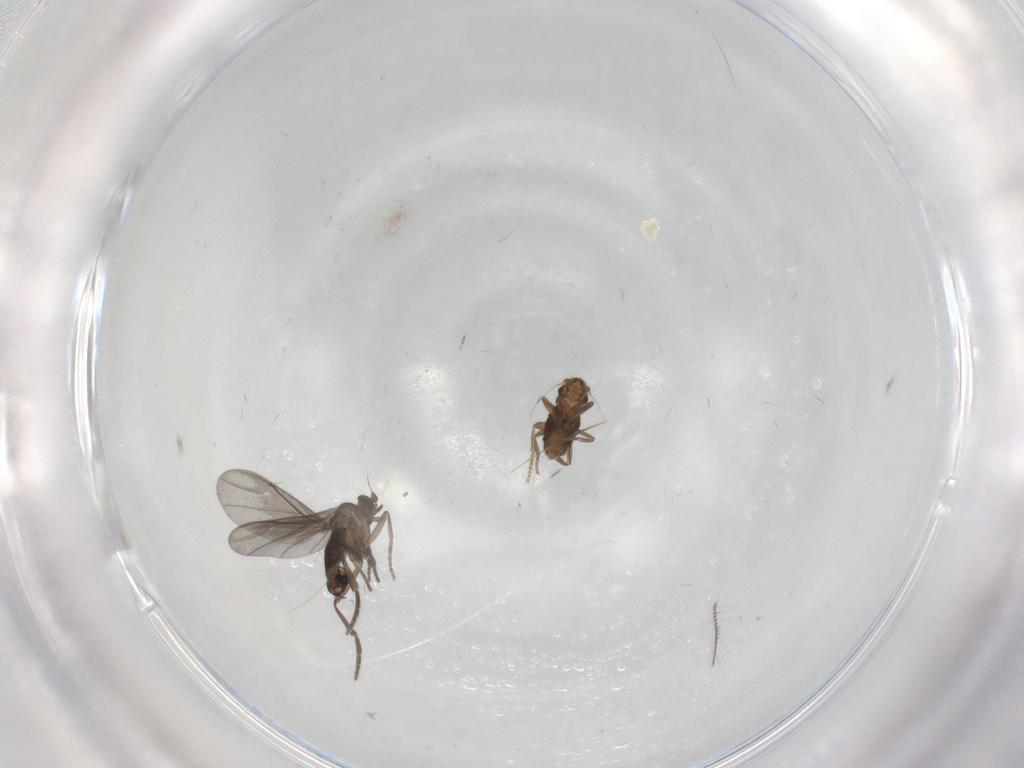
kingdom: Animalia
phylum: Arthropoda
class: Insecta
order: Diptera
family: Phoridae
